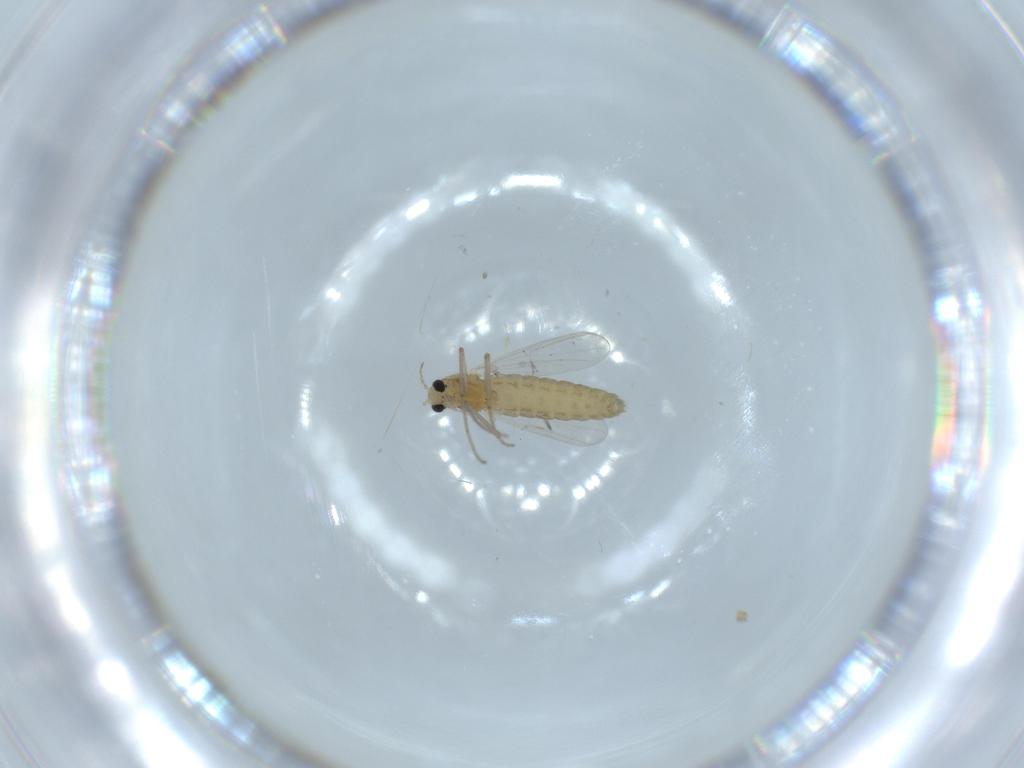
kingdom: Animalia
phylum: Arthropoda
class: Insecta
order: Diptera
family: Chironomidae
